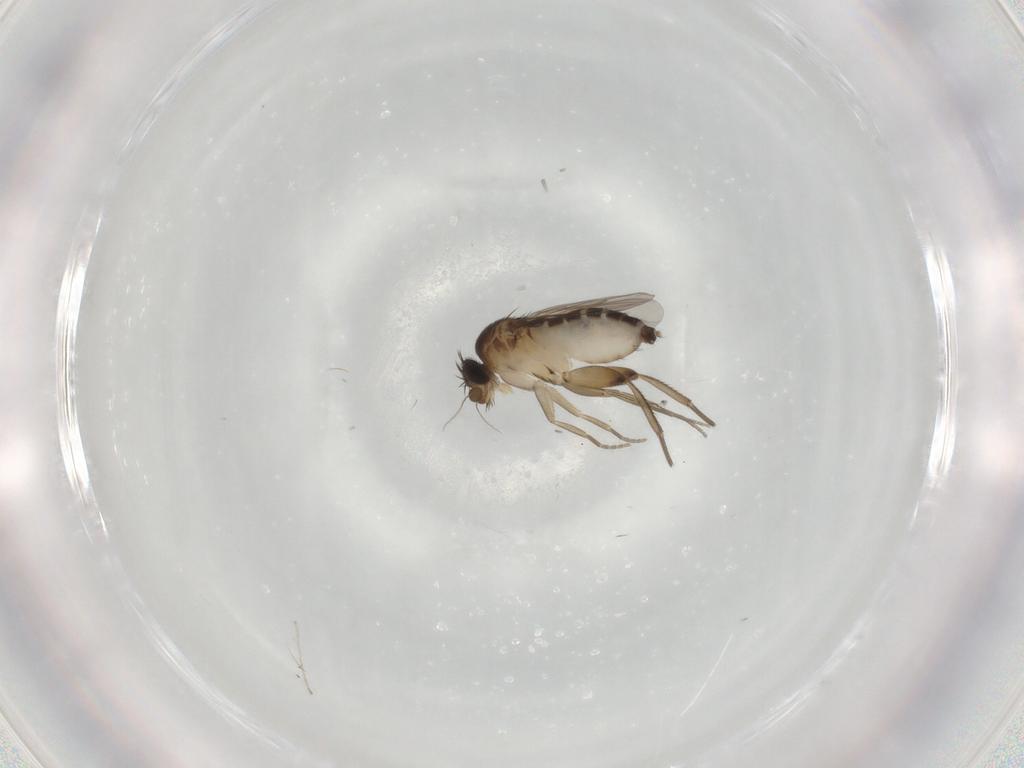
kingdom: Animalia
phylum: Arthropoda
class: Insecta
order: Diptera
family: Phoridae
